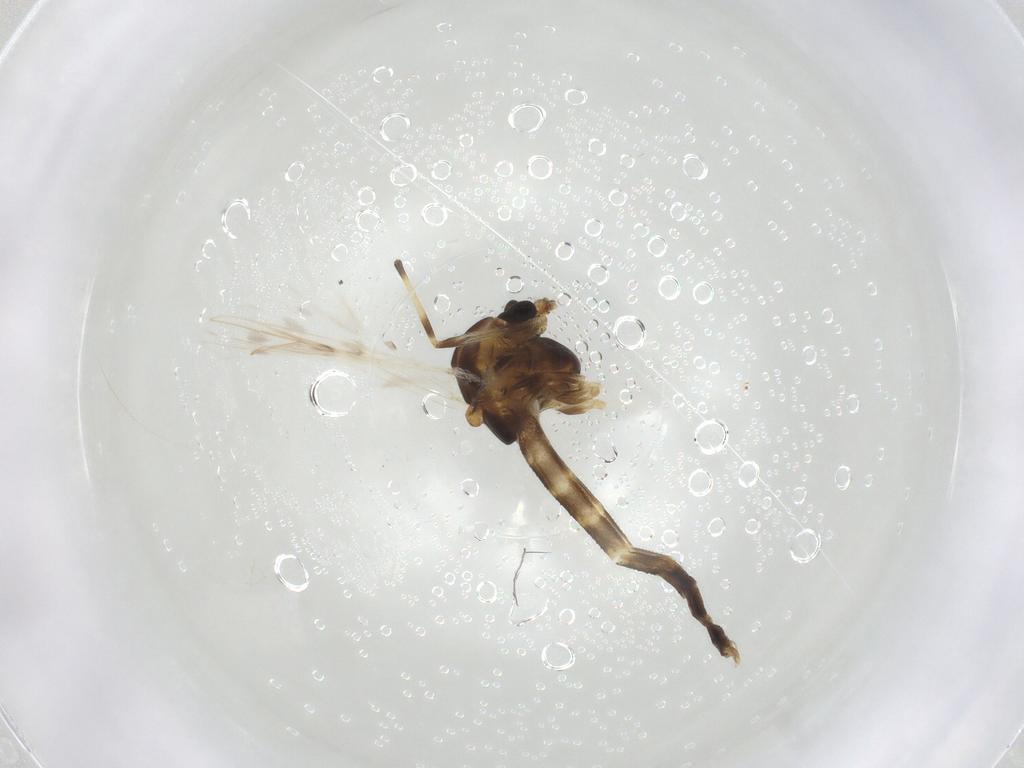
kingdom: Animalia
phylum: Arthropoda
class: Insecta
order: Diptera
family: Chironomidae
